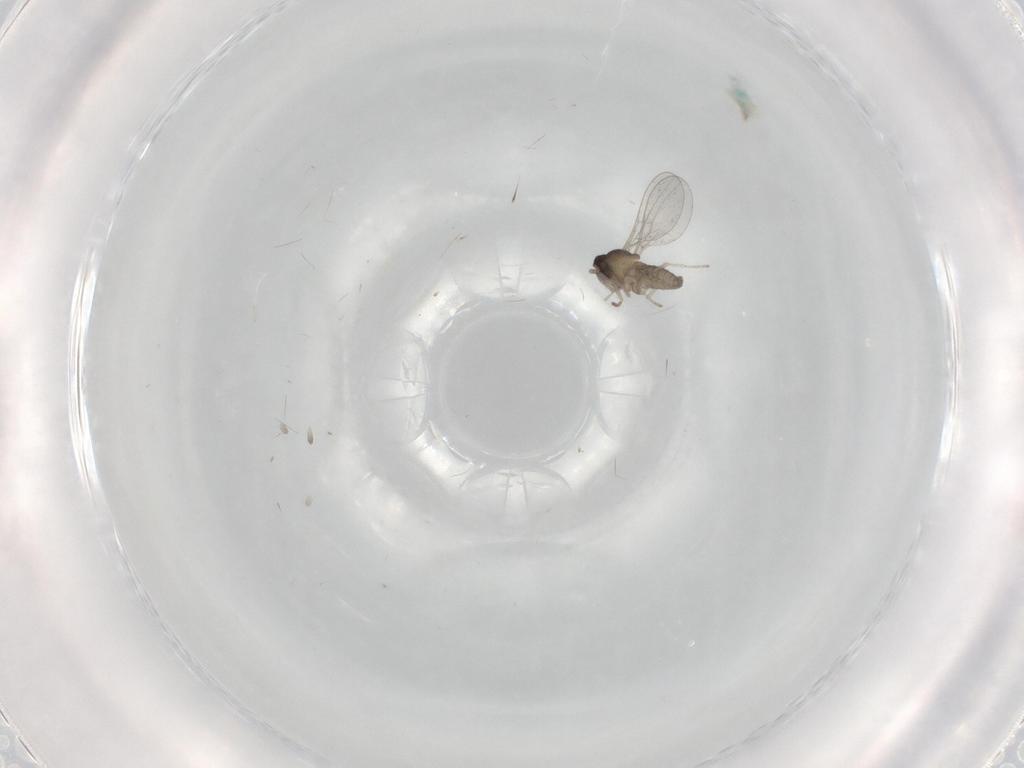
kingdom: Animalia
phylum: Arthropoda
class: Insecta
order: Diptera
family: Cecidomyiidae
